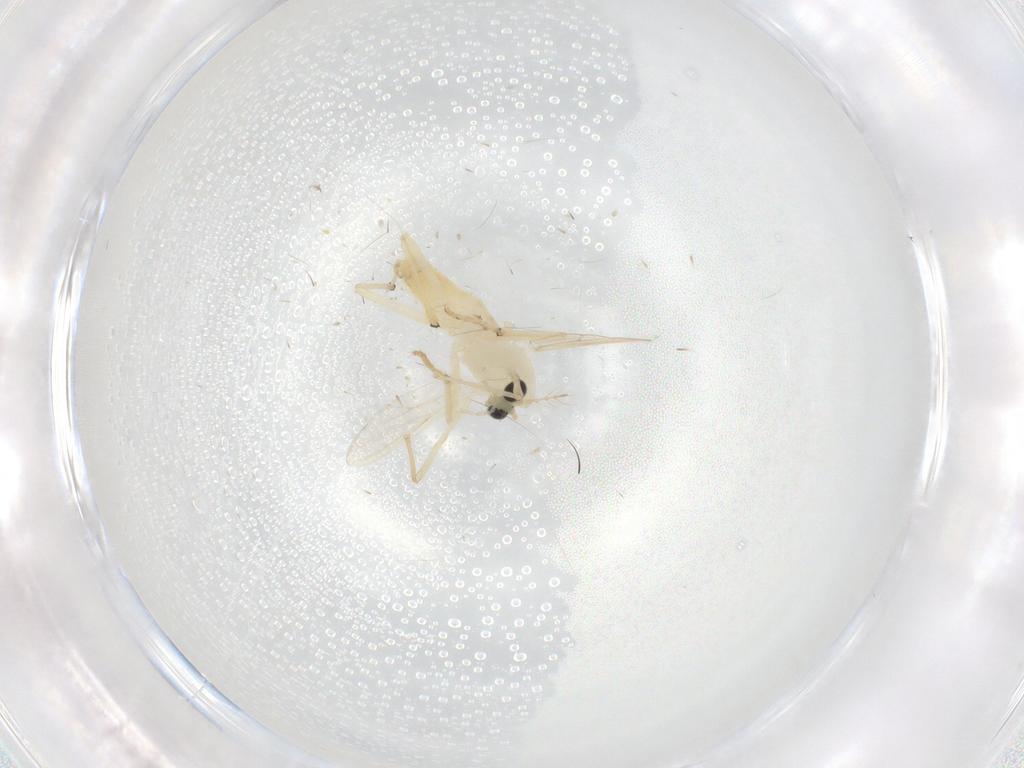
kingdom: Animalia
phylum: Arthropoda
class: Insecta
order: Diptera
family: Chironomidae
